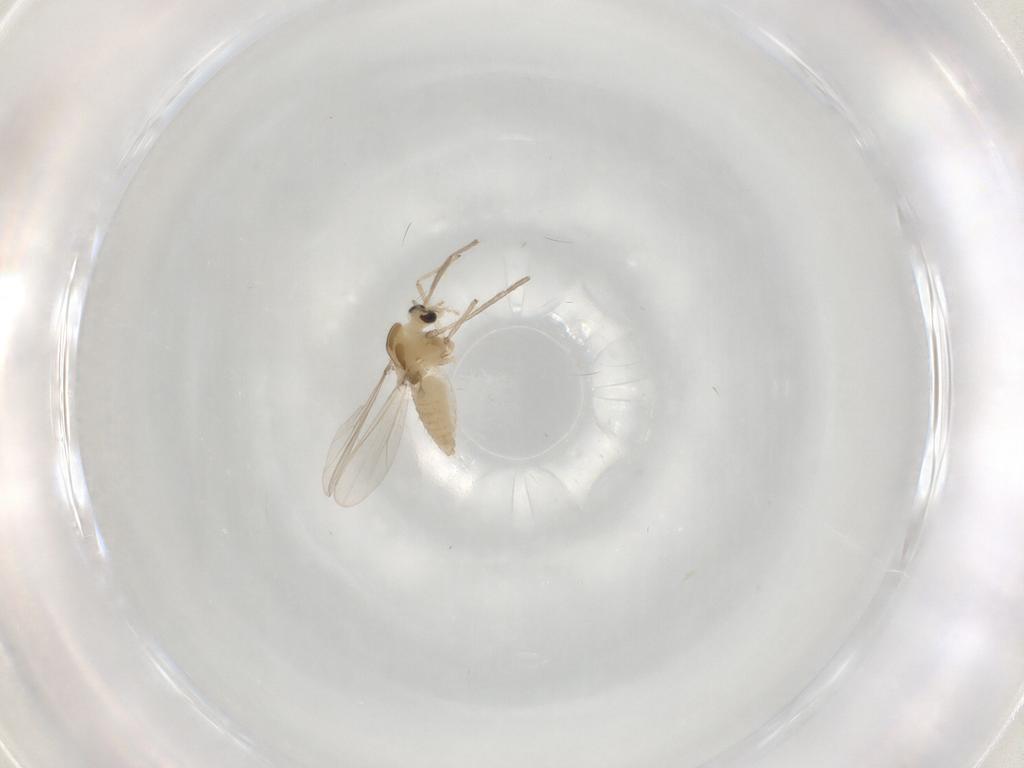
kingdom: Animalia
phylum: Arthropoda
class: Insecta
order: Diptera
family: Chironomidae
